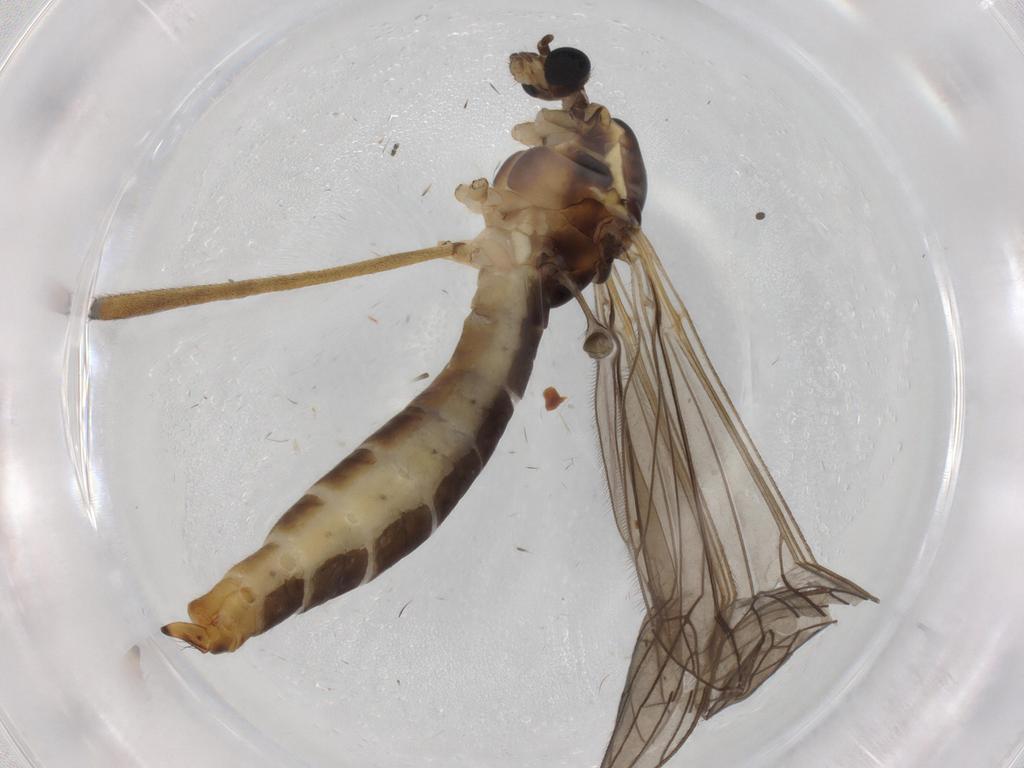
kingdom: Animalia
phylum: Arthropoda
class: Insecta
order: Diptera
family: Limoniidae
